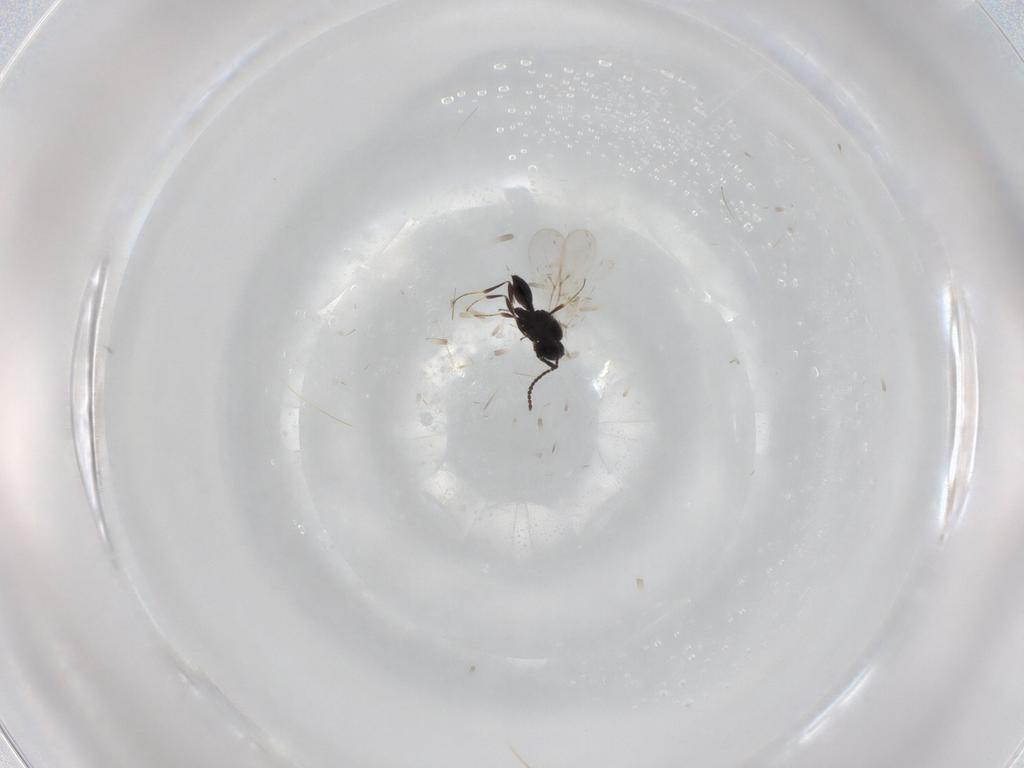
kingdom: Animalia
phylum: Arthropoda
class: Insecta
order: Hymenoptera
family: Scelionidae
